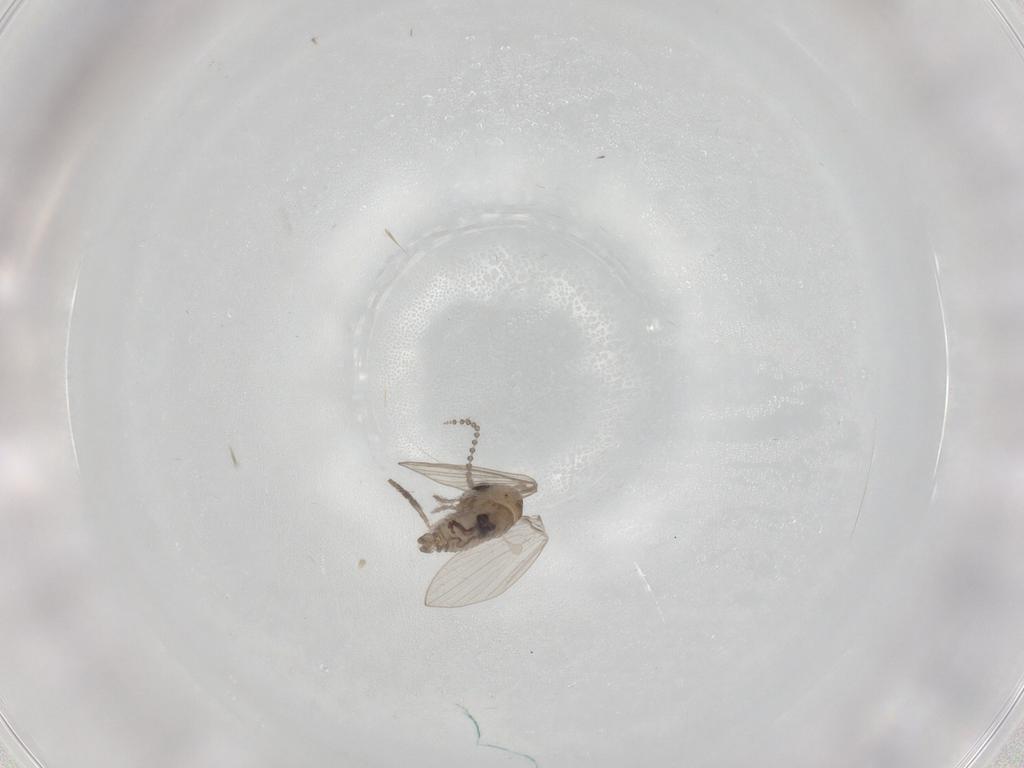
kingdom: Animalia
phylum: Arthropoda
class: Insecta
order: Diptera
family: Psychodidae
